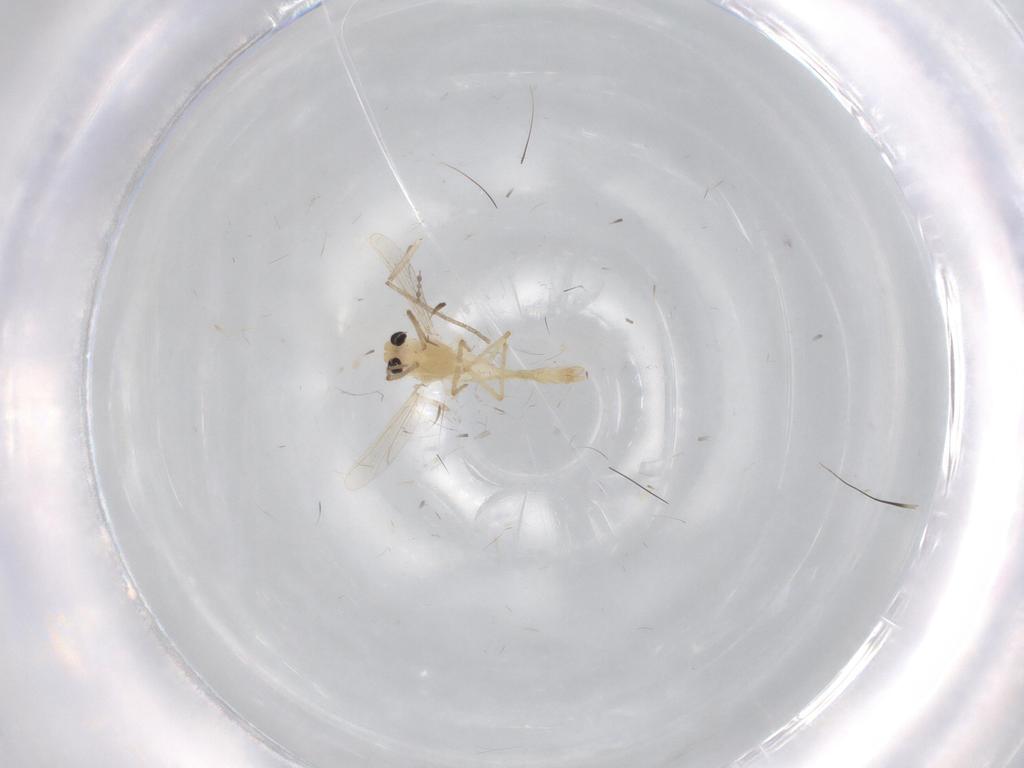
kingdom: Animalia
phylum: Arthropoda
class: Insecta
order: Diptera
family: Chironomidae
